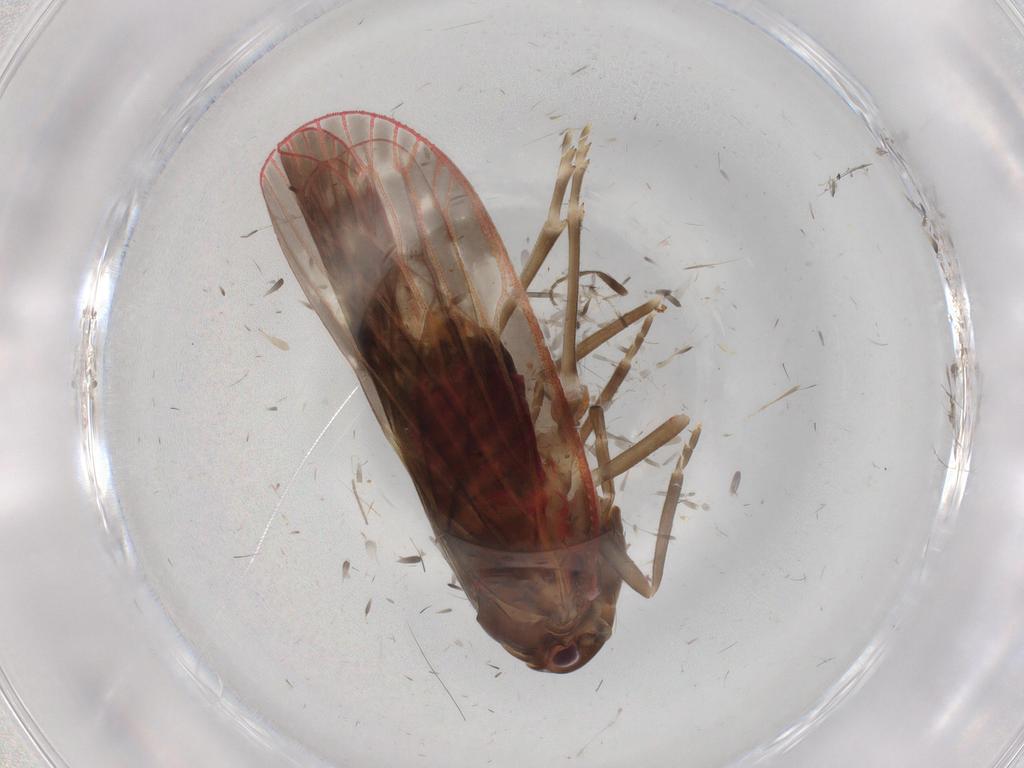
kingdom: Animalia
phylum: Arthropoda
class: Insecta
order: Hemiptera
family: Achilidae
